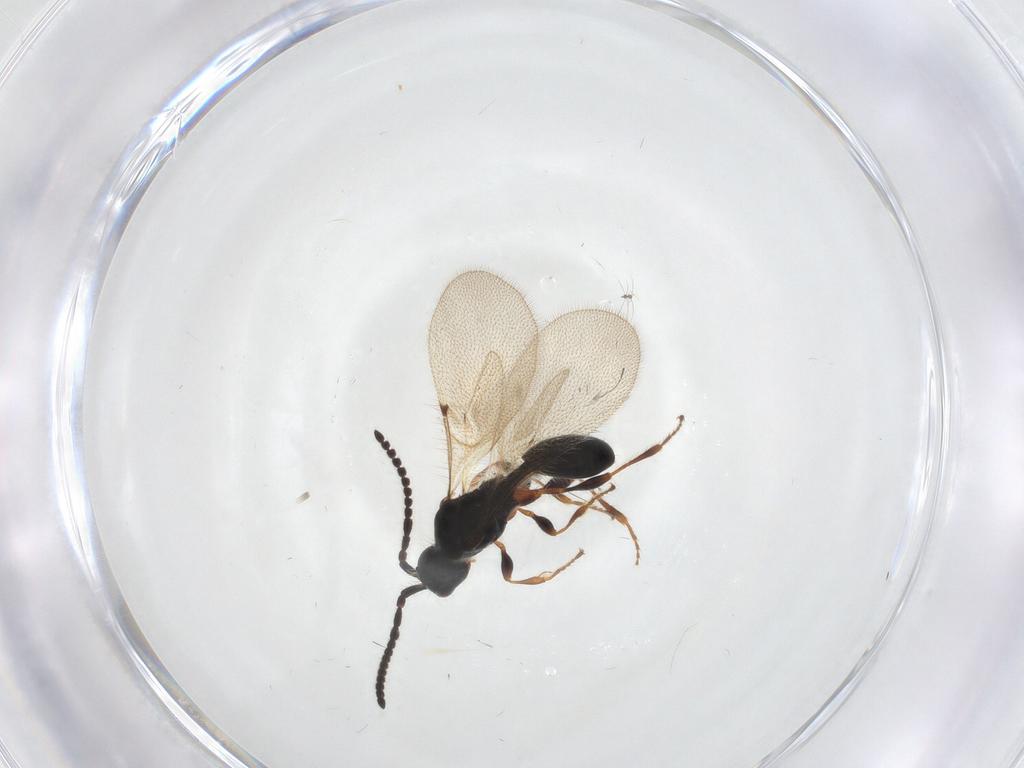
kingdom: Animalia
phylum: Arthropoda
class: Insecta
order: Hymenoptera
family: Diapriidae
